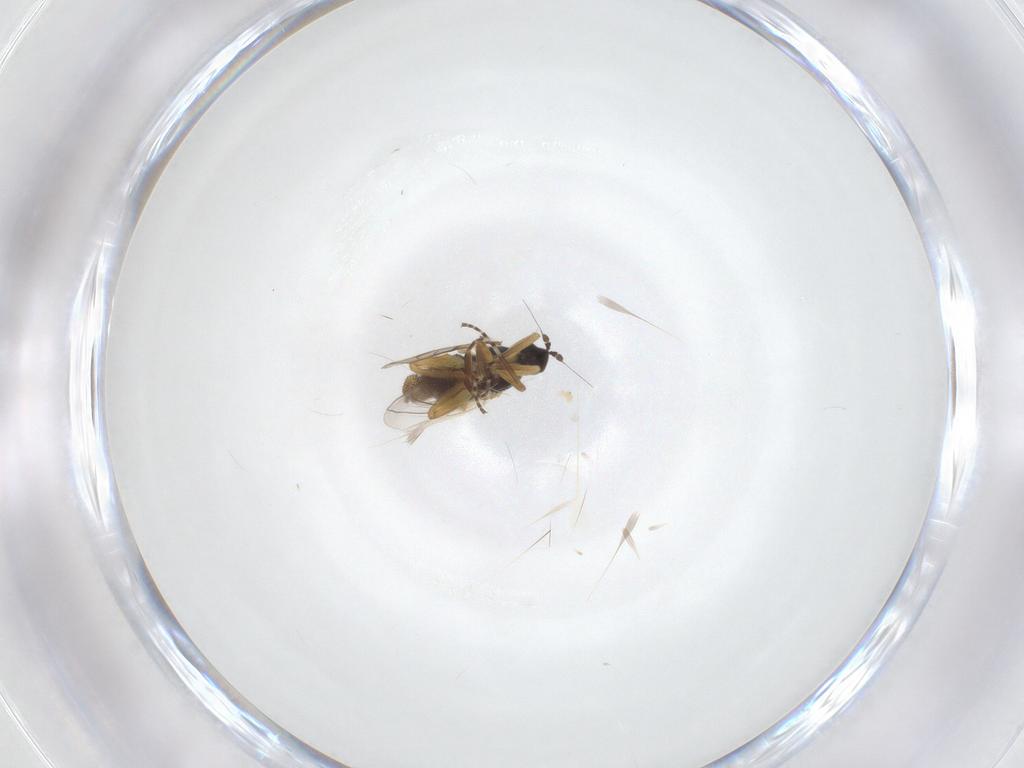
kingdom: Animalia
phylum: Arthropoda
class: Insecta
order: Diptera
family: Hybotidae
